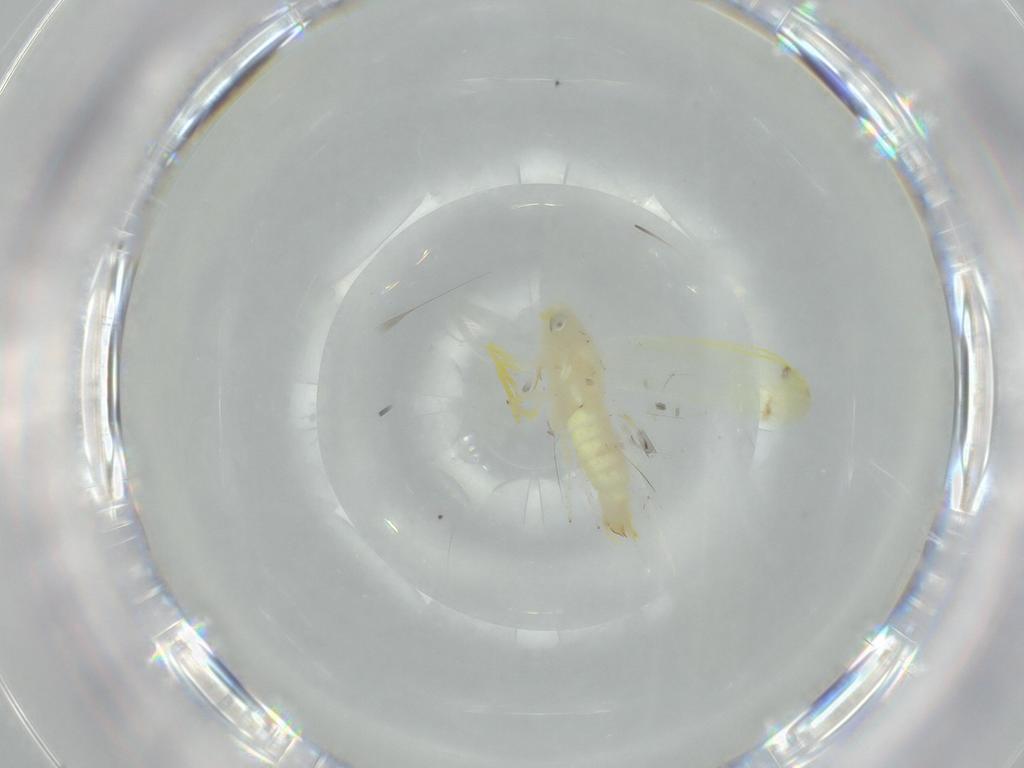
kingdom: Animalia
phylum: Arthropoda
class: Insecta
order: Hemiptera
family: Cicadellidae
